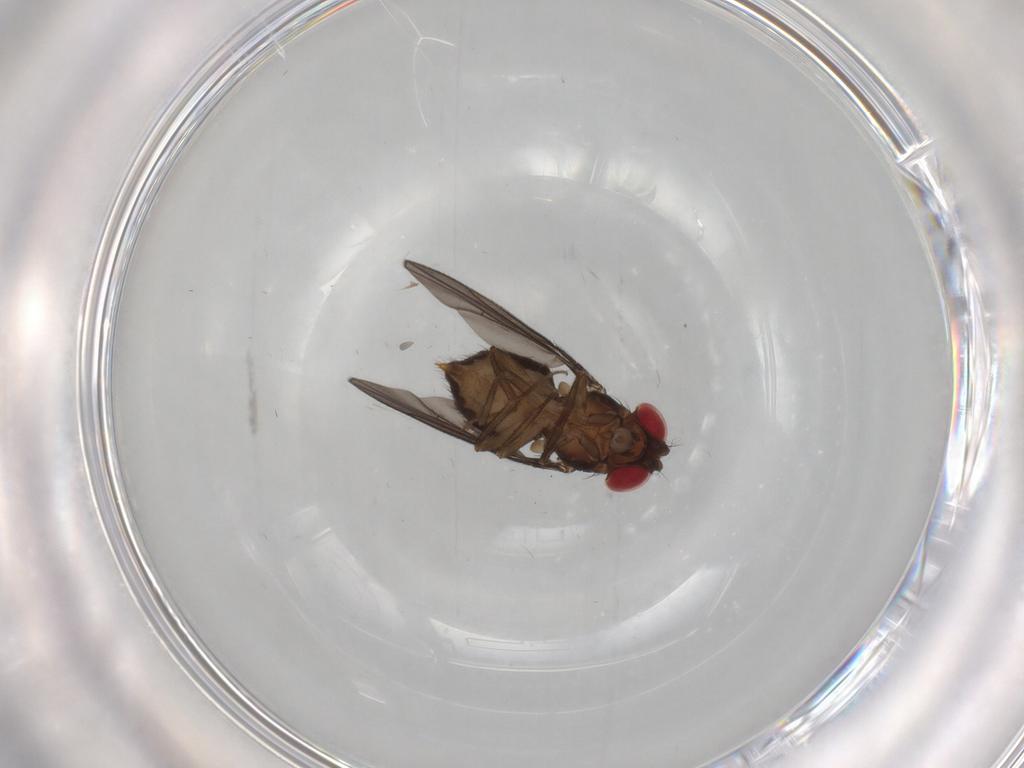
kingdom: Animalia
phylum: Arthropoda
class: Insecta
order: Diptera
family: Drosophilidae
